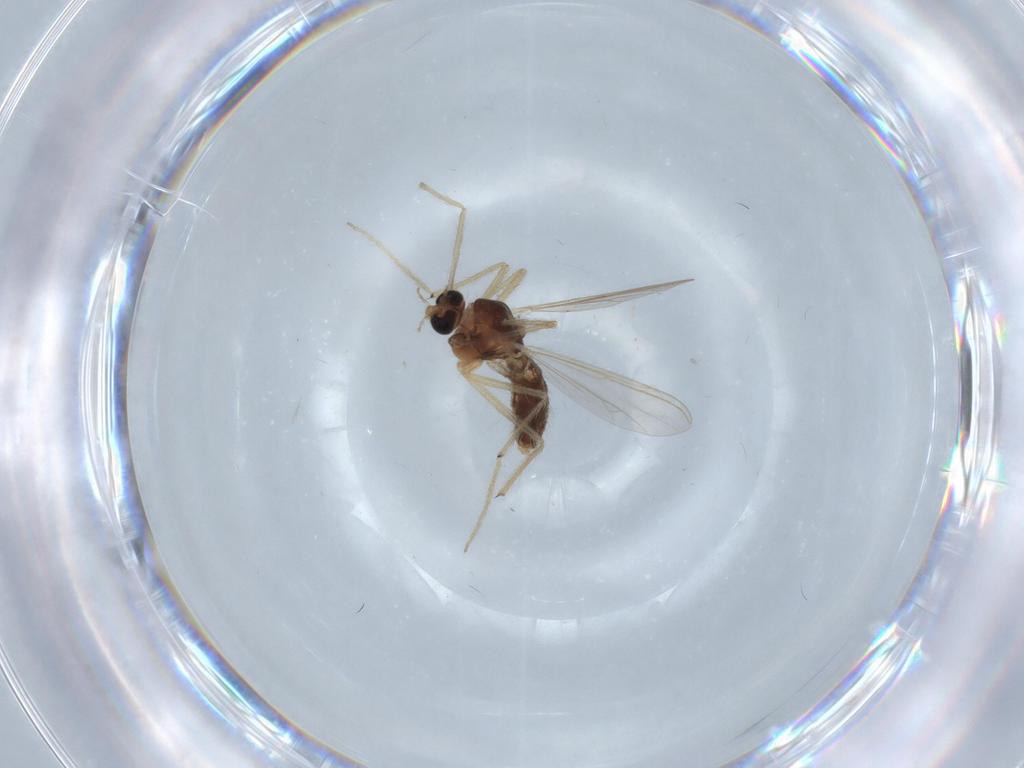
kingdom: Animalia
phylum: Arthropoda
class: Insecta
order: Diptera
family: Chironomidae
